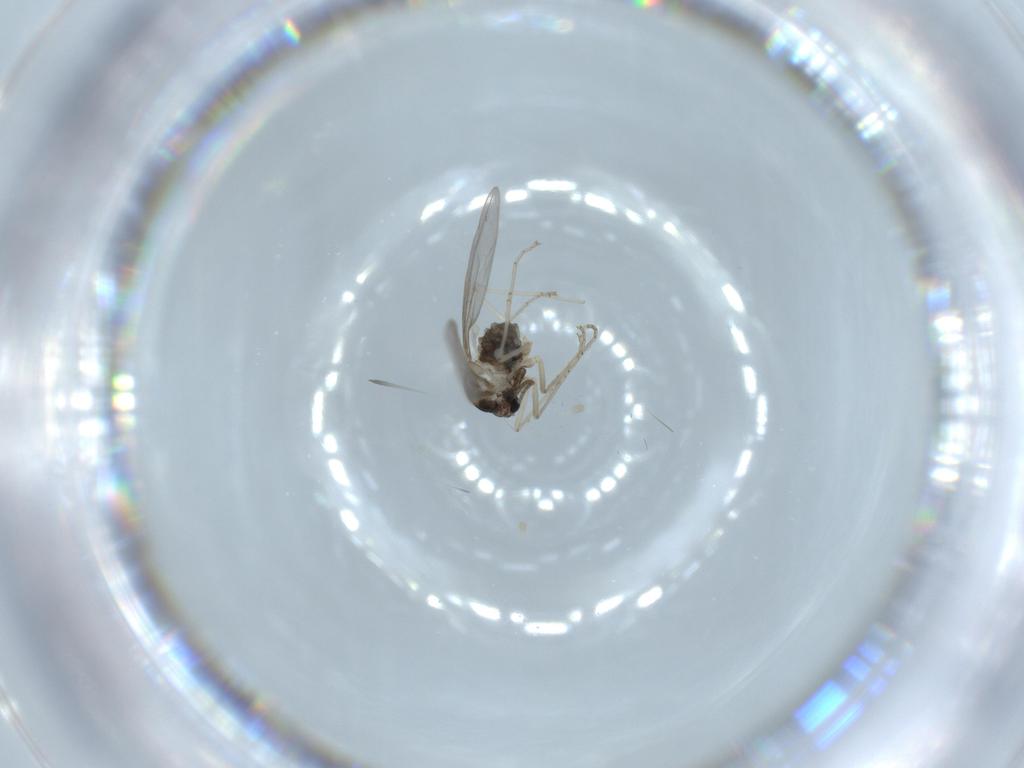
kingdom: Animalia
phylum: Arthropoda
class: Insecta
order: Diptera
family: Cecidomyiidae
